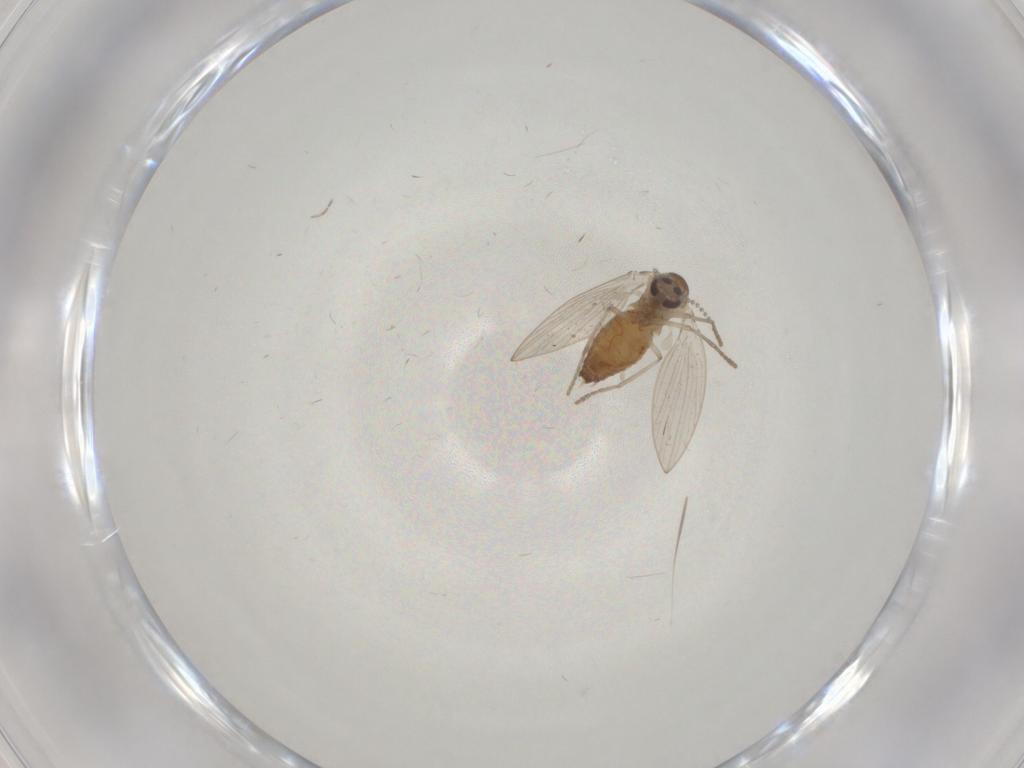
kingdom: Animalia
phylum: Arthropoda
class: Insecta
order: Diptera
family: Psychodidae
